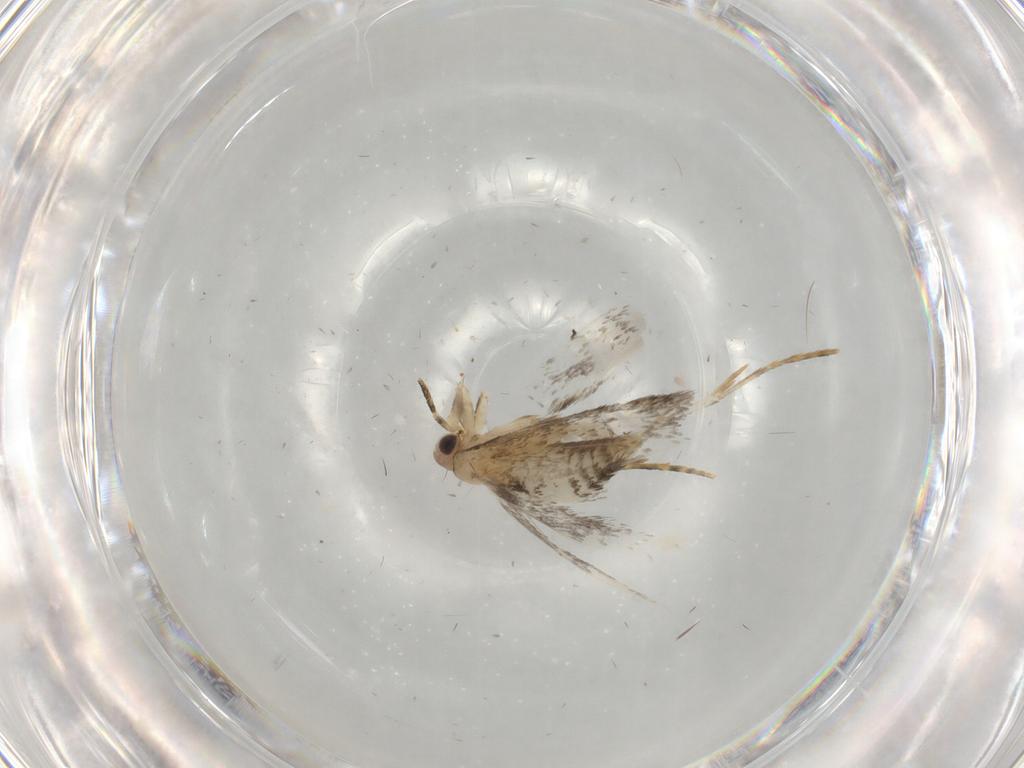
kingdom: Animalia
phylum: Arthropoda
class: Insecta
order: Lepidoptera
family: Tineidae
